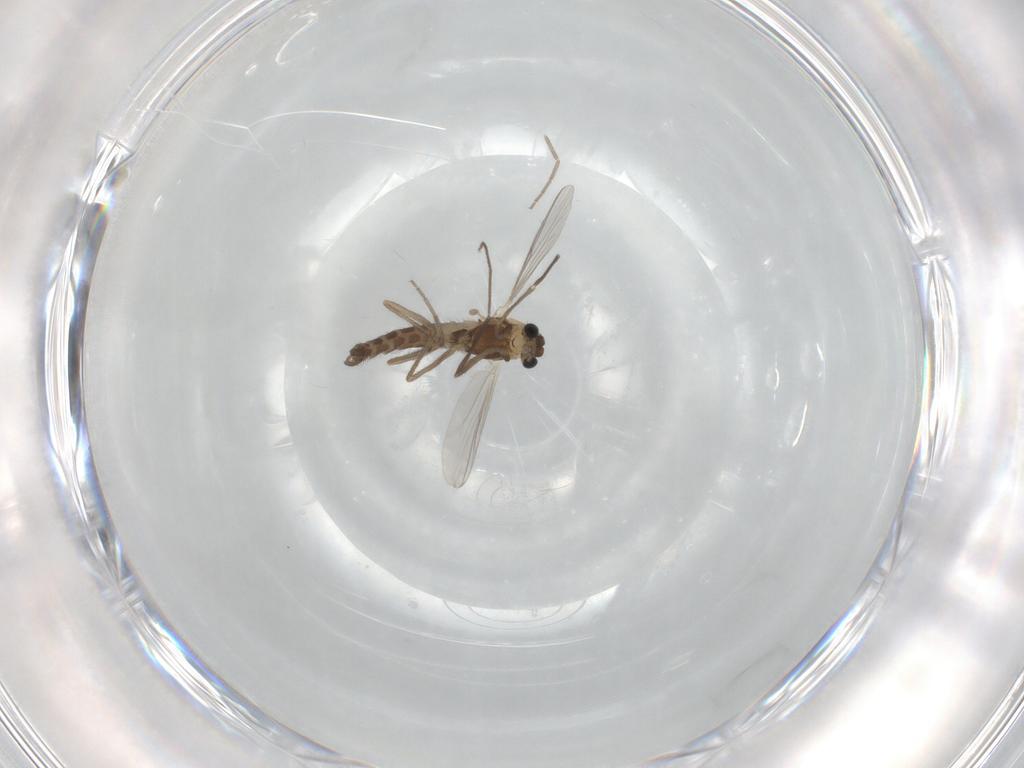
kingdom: Animalia
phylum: Arthropoda
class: Insecta
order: Diptera
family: Chironomidae
